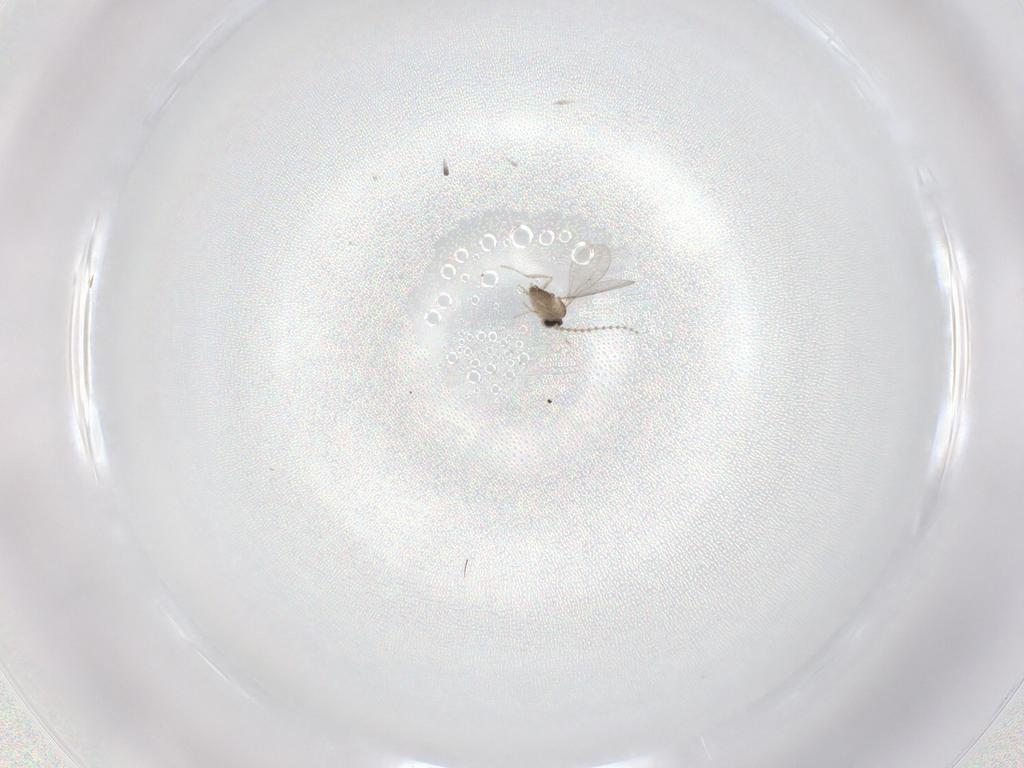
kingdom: Animalia
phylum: Arthropoda
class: Insecta
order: Diptera
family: Cecidomyiidae
